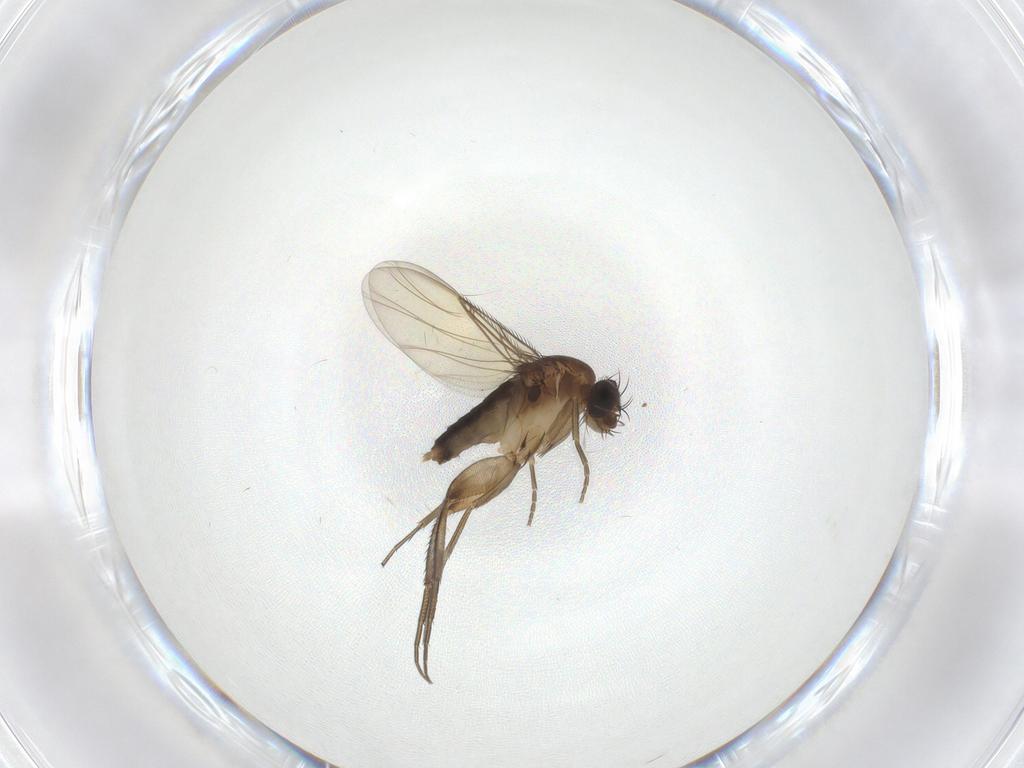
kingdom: Animalia
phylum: Arthropoda
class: Insecta
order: Diptera
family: Phoridae
